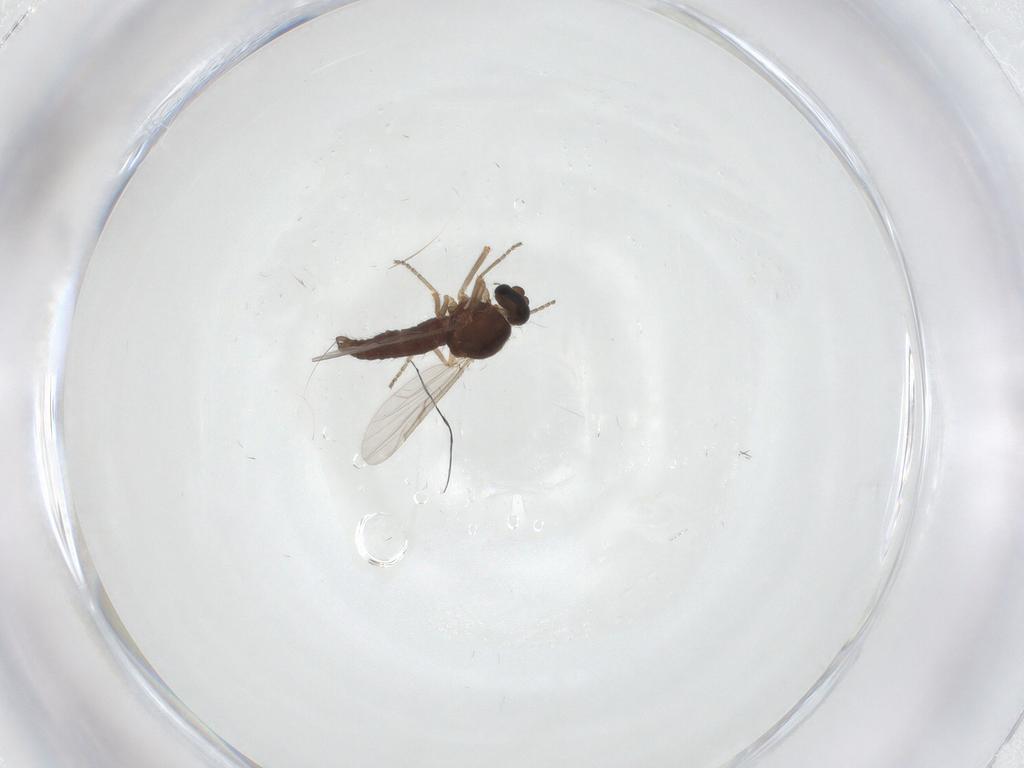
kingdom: Animalia
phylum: Arthropoda
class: Insecta
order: Diptera
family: Ceratopogonidae
